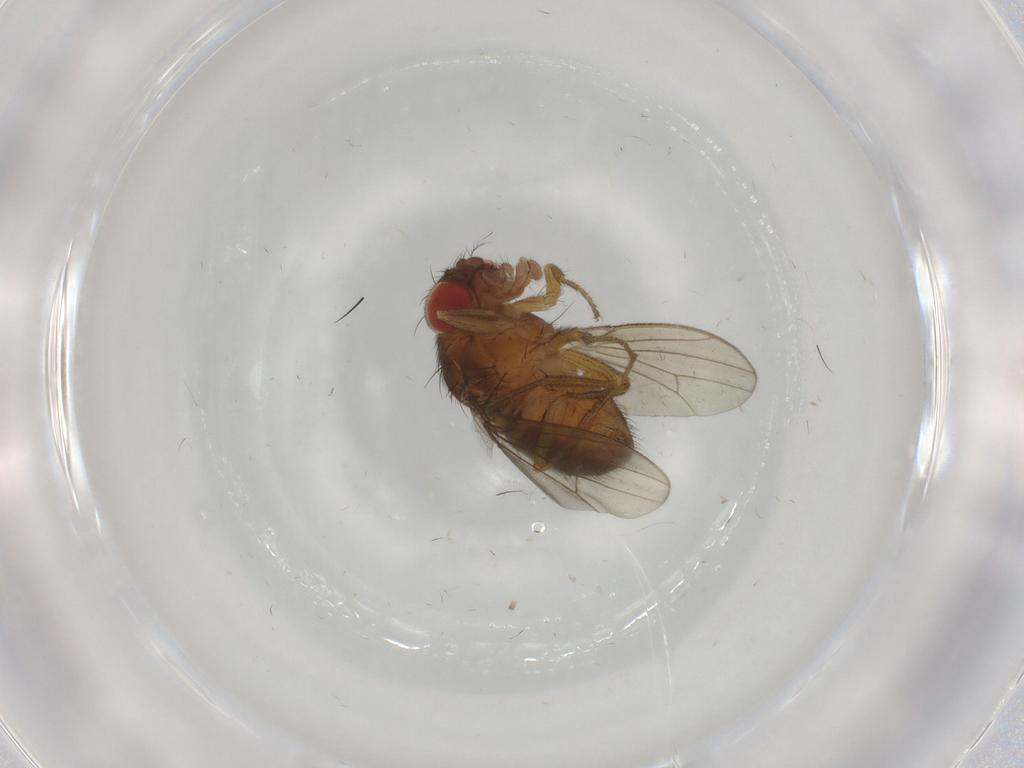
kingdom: Animalia
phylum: Arthropoda
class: Insecta
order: Diptera
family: Drosophilidae
